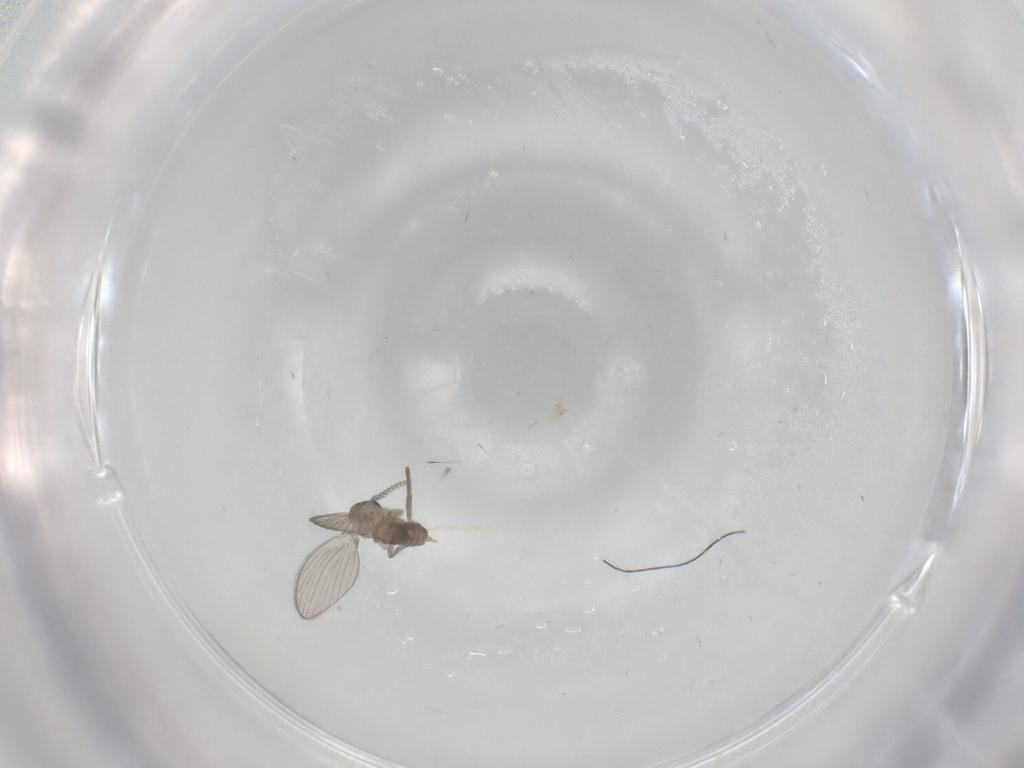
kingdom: Animalia
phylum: Arthropoda
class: Insecta
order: Diptera
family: Psychodidae
